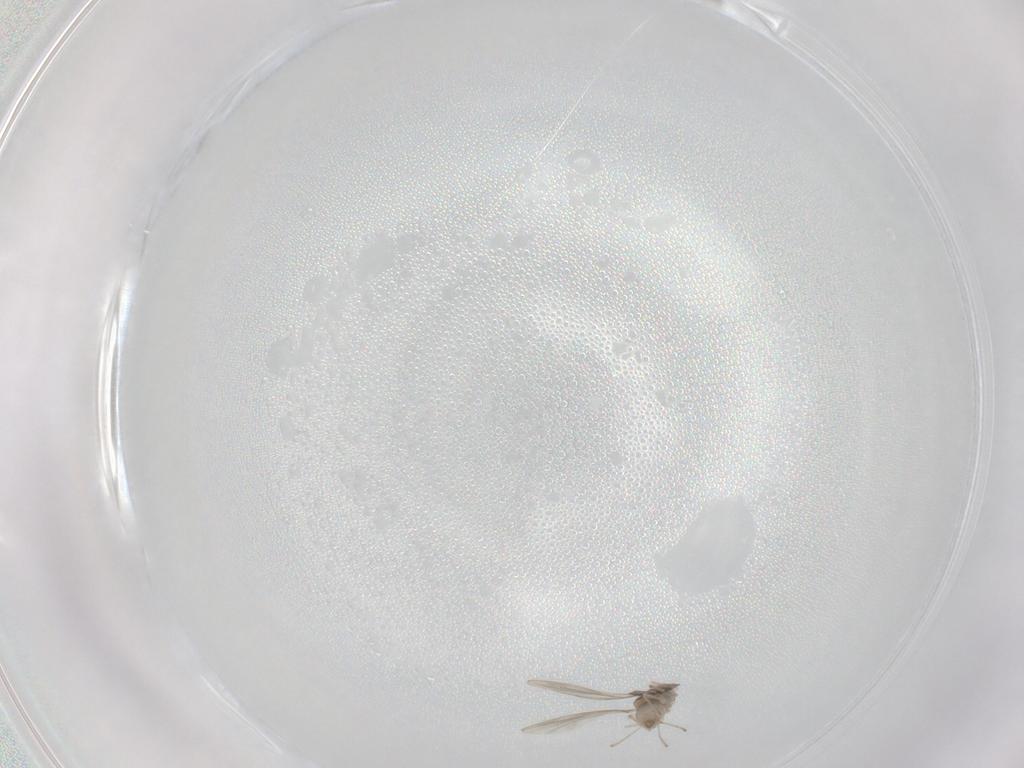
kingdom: Animalia
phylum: Arthropoda
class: Insecta
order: Diptera
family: Cecidomyiidae
